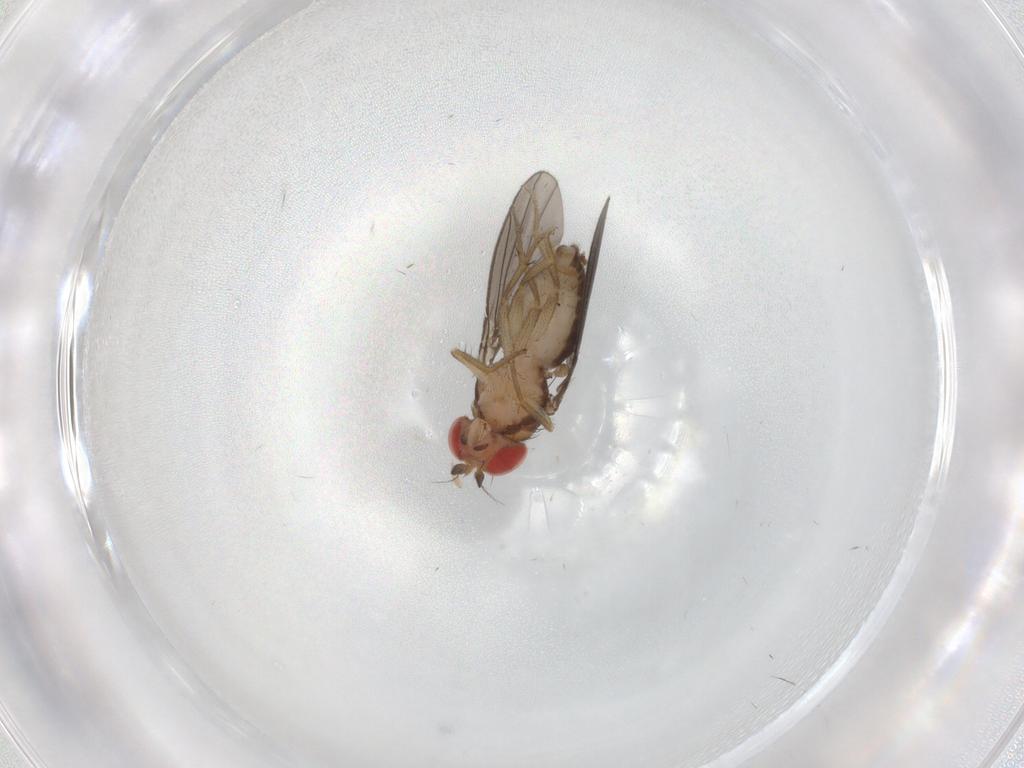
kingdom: Animalia
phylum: Arthropoda
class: Insecta
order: Diptera
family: Drosophilidae
